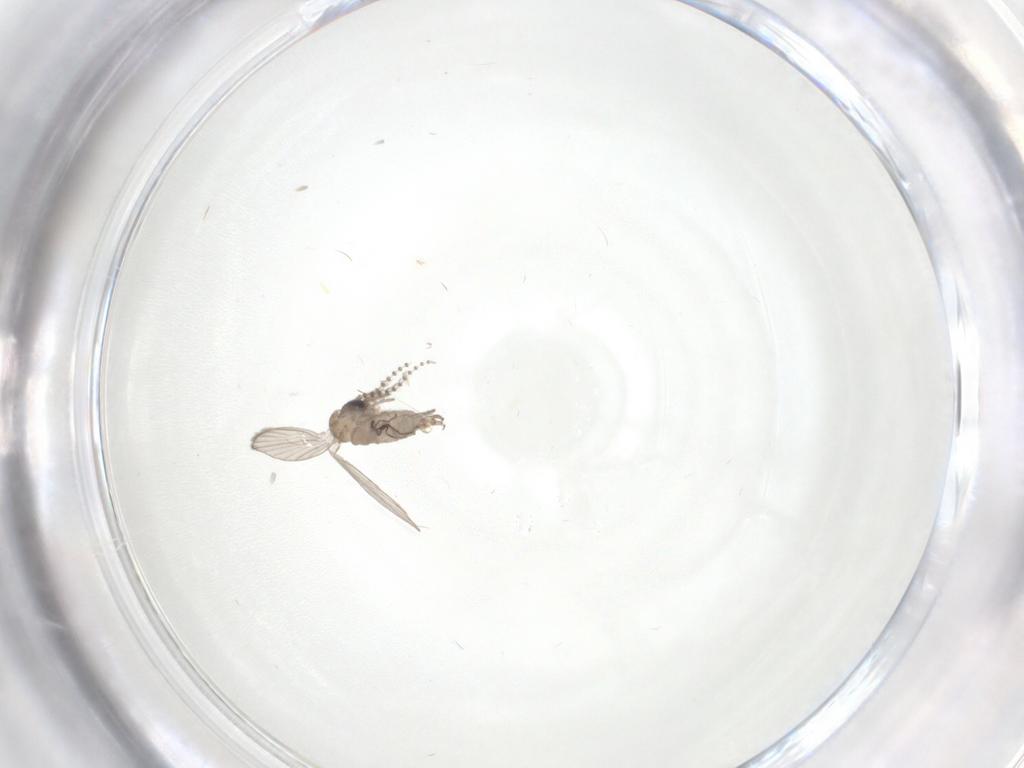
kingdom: Animalia
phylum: Arthropoda
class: Insecta
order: Diptera
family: Psychodidae
